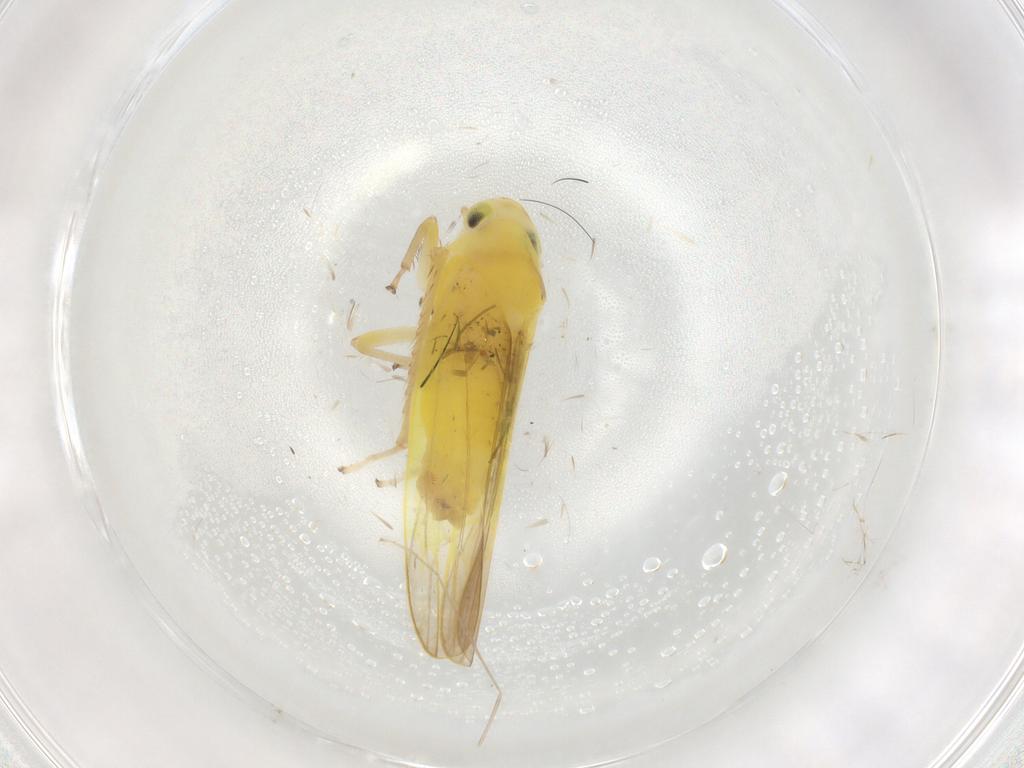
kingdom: Animalia
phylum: Arthropoda
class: Insecta
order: Hemiptera
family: Cicadellidae
